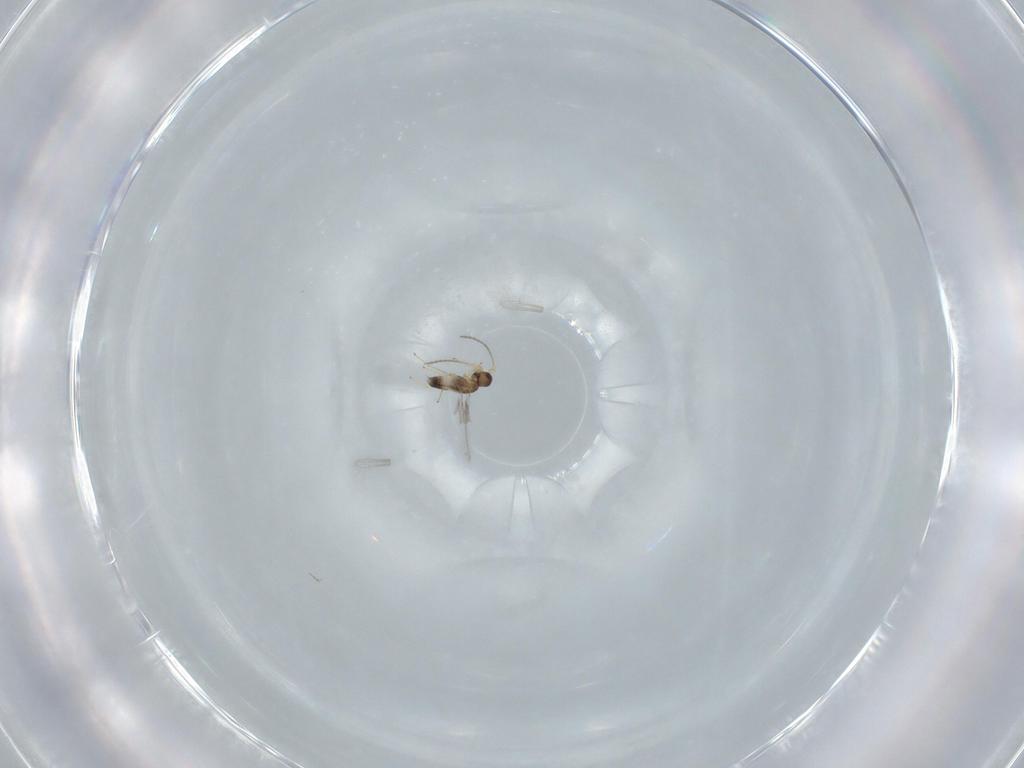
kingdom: Animalia
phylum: Arthropoda
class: Insecta
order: Hymenoptera
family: Mymaridae
